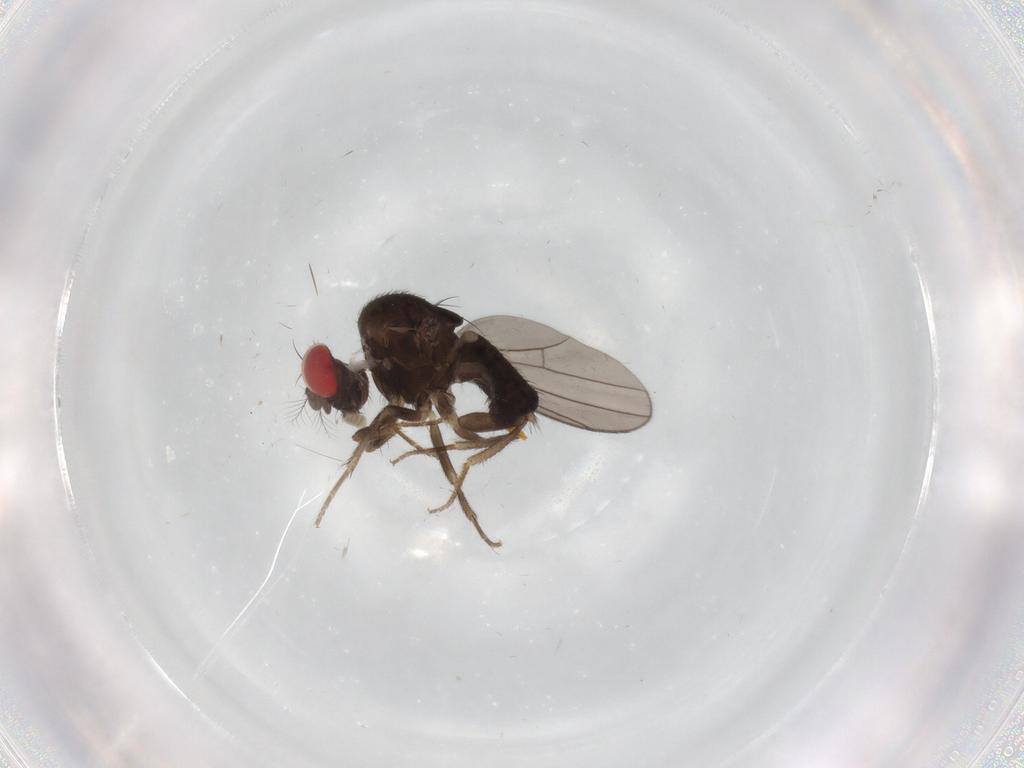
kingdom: Animalia
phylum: Arthropoda
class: Insecta
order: Diptera
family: Drosophilidae
